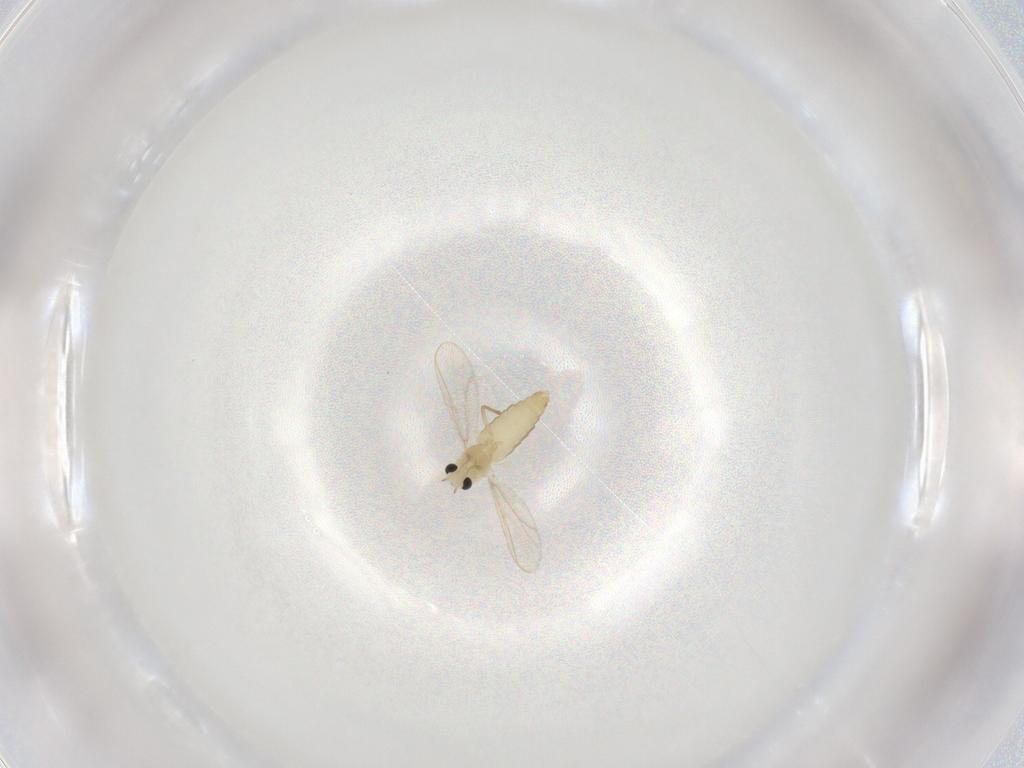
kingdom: Animalia
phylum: Arthropoda
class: Insecta
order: Diptera
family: Chironomidae
